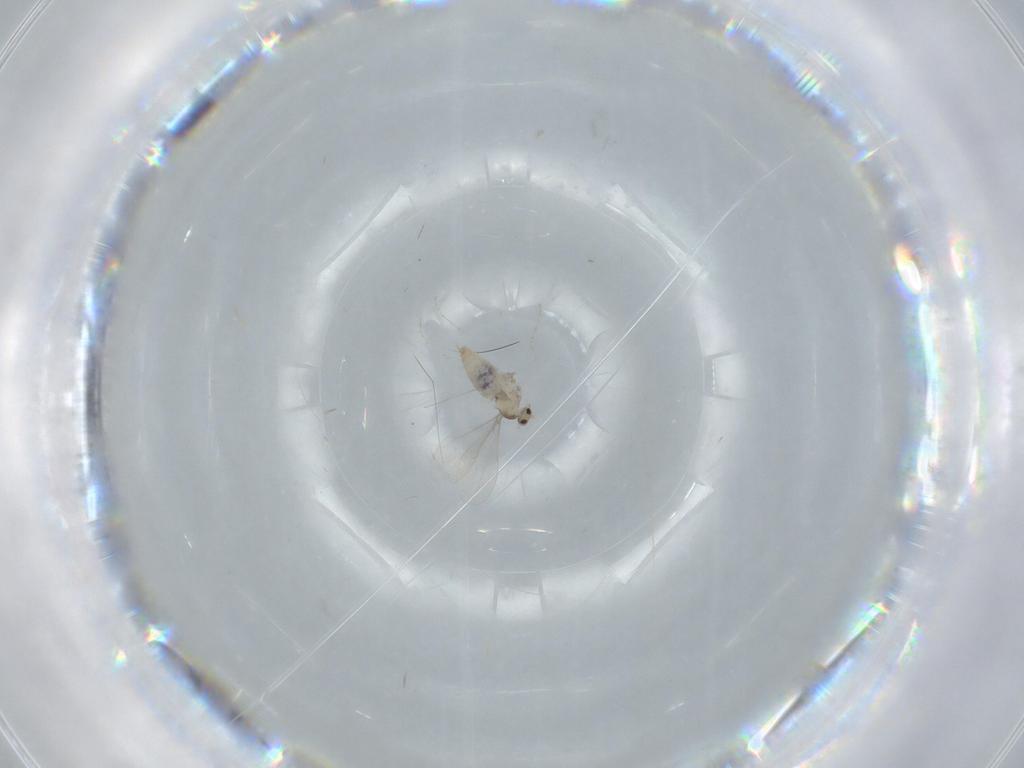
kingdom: Animalia
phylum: Arthropoda
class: Insecta
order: Diptera
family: Cecidomyiidae
